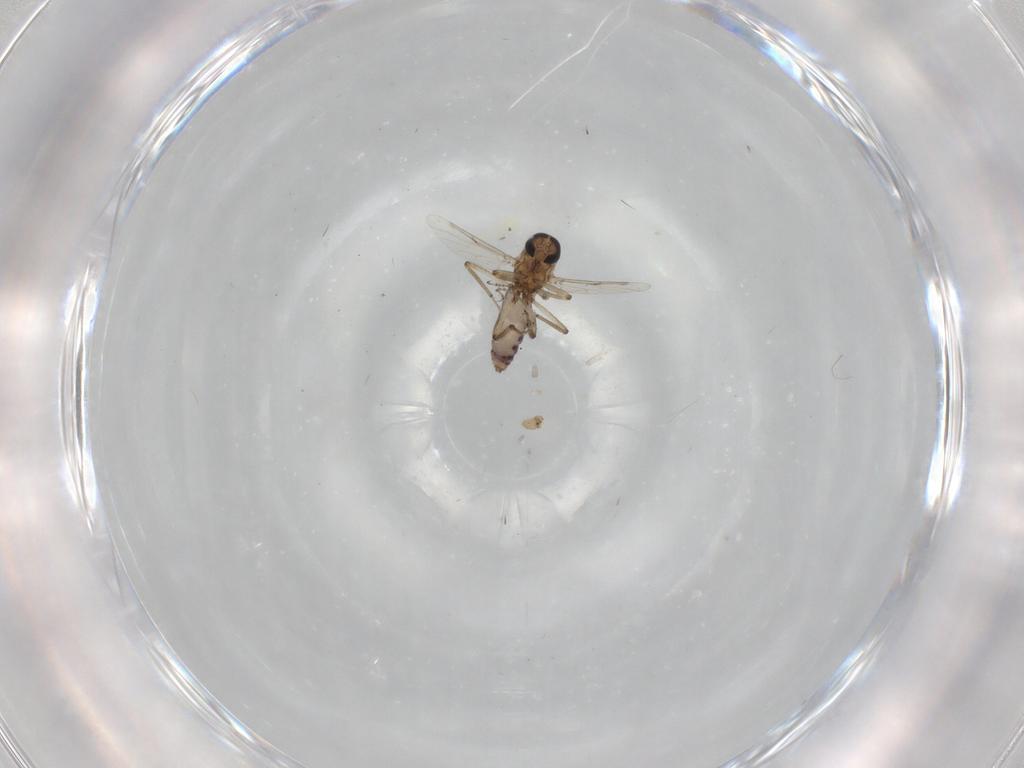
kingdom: Animalia
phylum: Arthropoda
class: Insecta
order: Diptera
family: Ceratopogonidae
